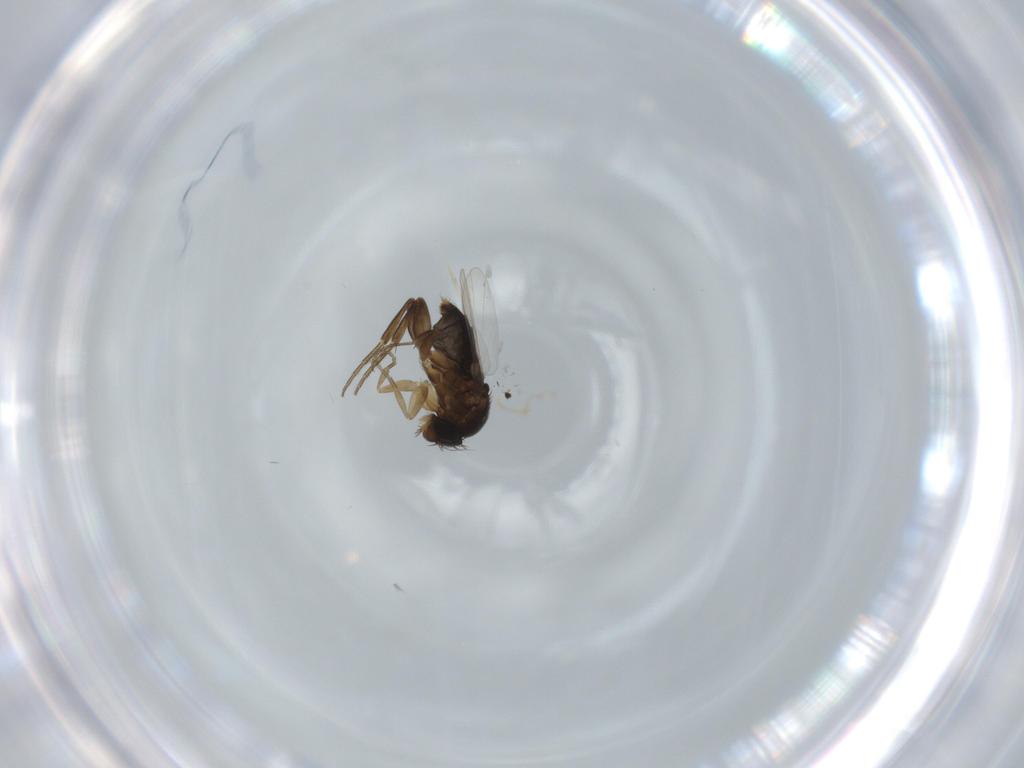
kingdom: Animalia
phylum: Arthropoda
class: Insecta
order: Diptera
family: Phoridae
